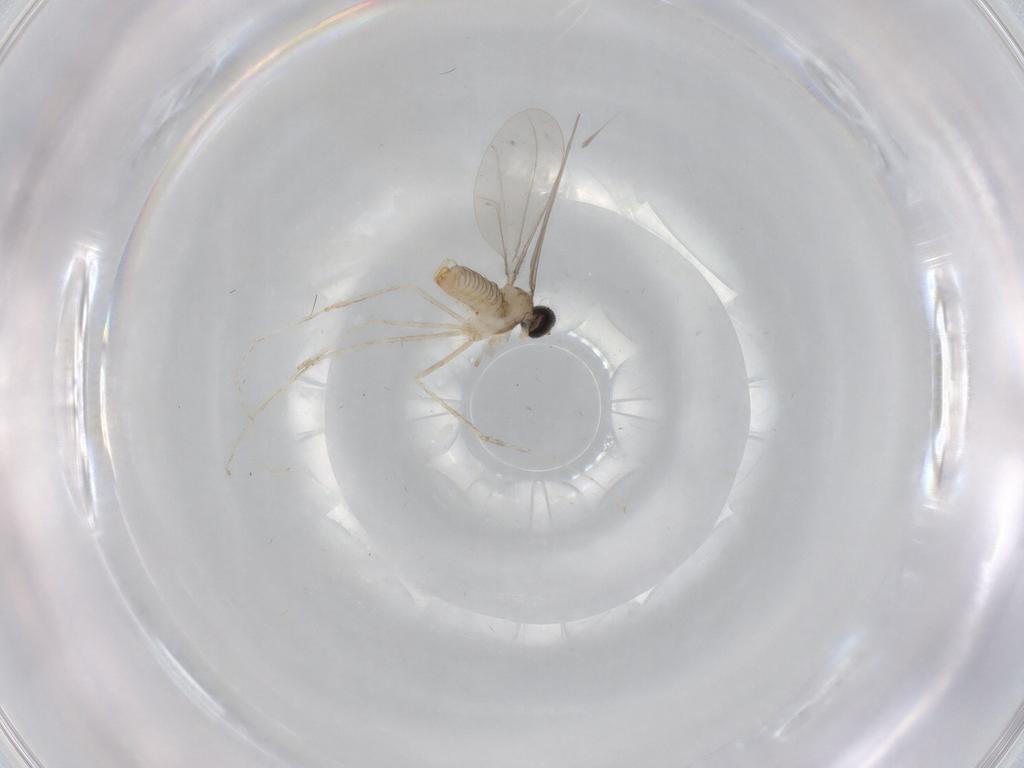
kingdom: Animalia
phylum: Arthropoda
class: Insecta
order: Diptera
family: Cecidomyiidae
